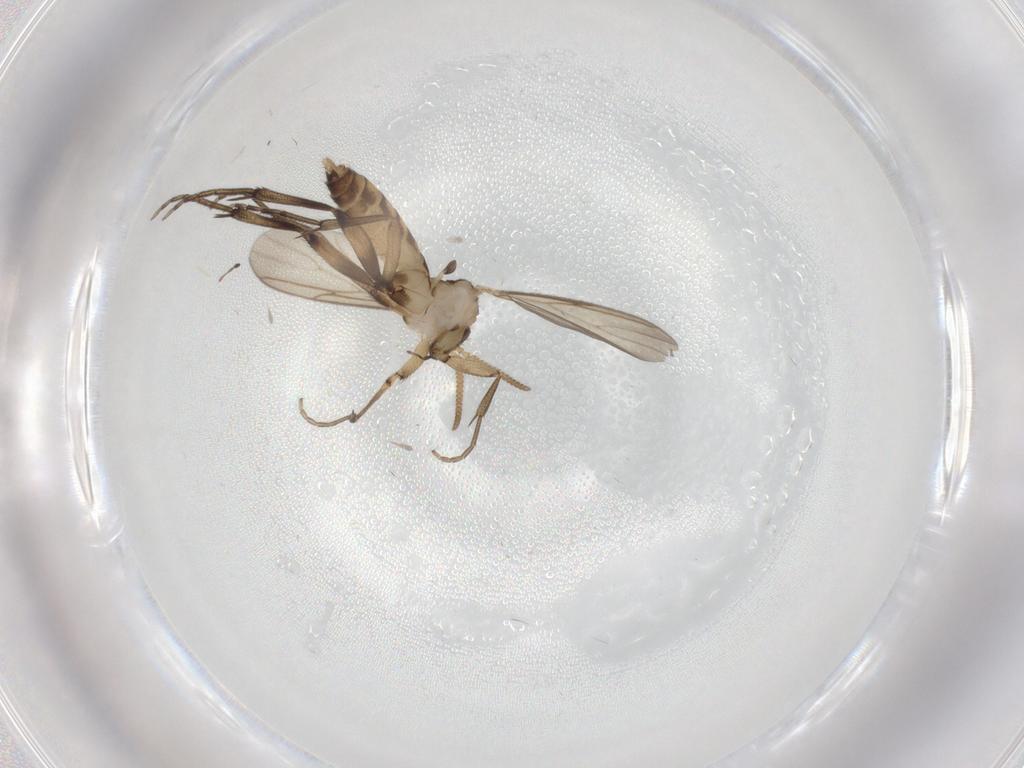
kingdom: Animalia
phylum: Arthropoda
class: Insecta
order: Diptera
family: Mycetophilidae
